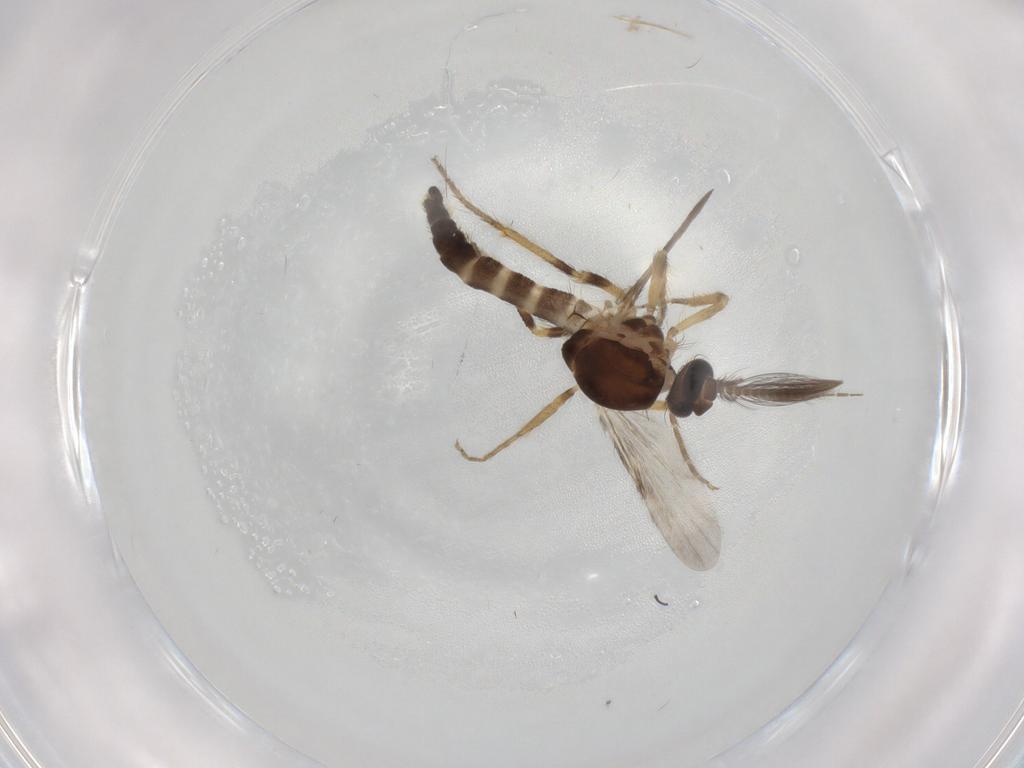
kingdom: Animalia
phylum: Arthropoda
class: Insecta
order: Diptera
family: Ceratopogonidae
